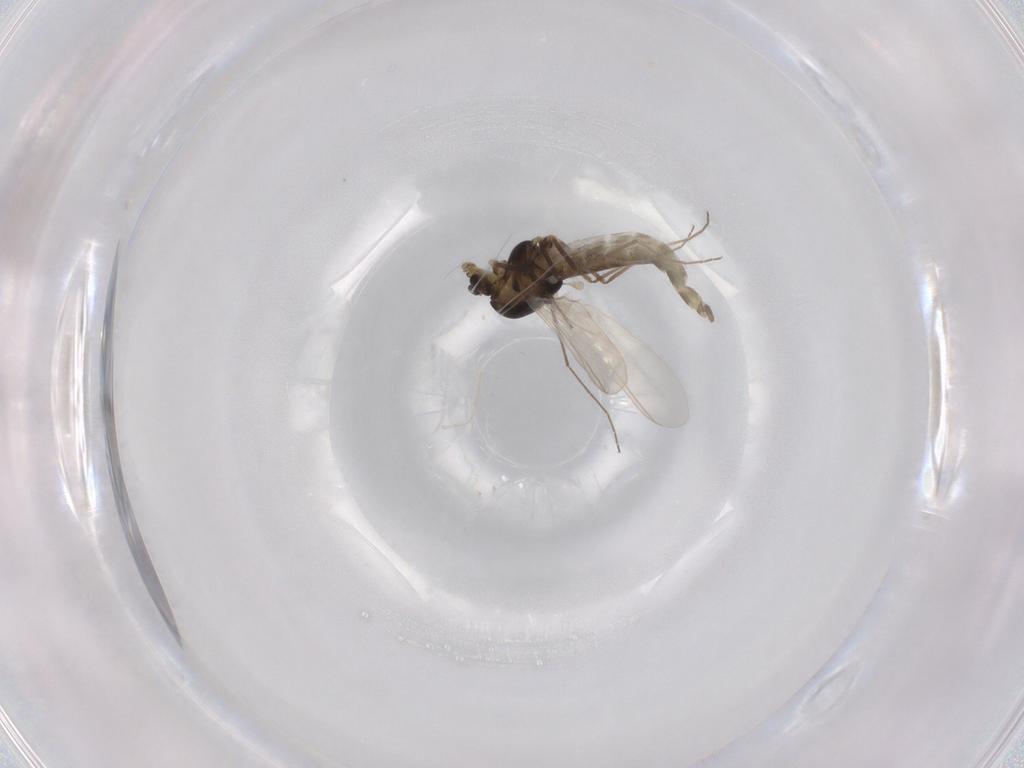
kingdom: Animalia
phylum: Arthropoda
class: Insecta
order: Diptera
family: Chironomidae
